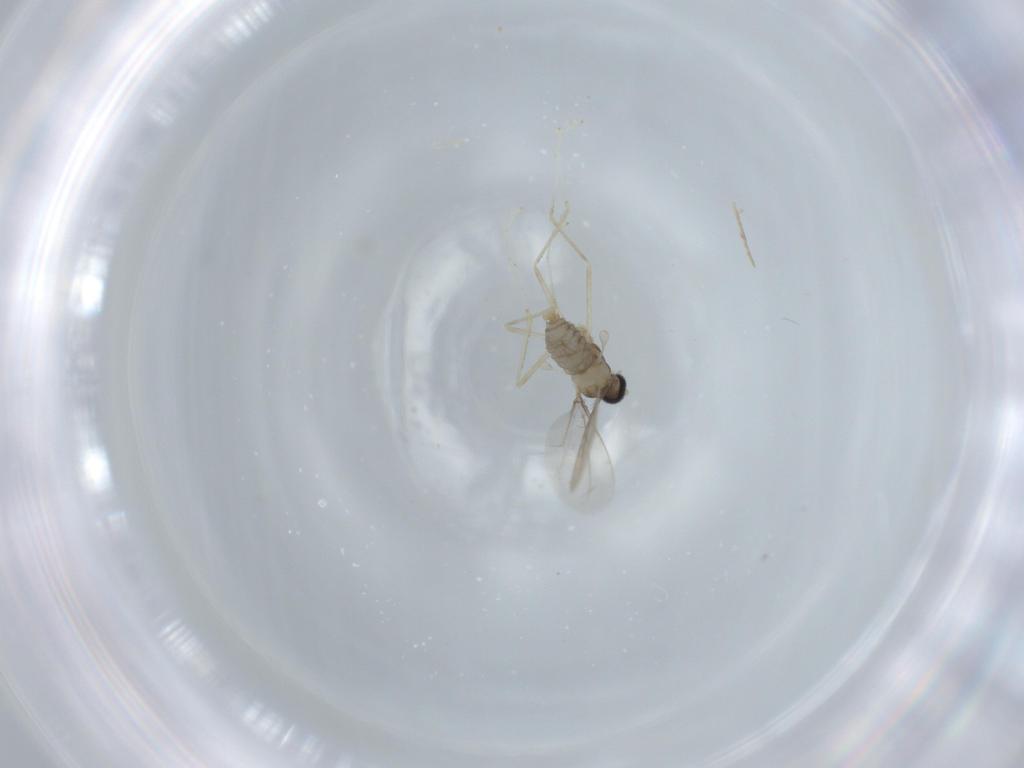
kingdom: Animalia
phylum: Arthropoda
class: Insecta
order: Diptera
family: Cecidomyiidae
